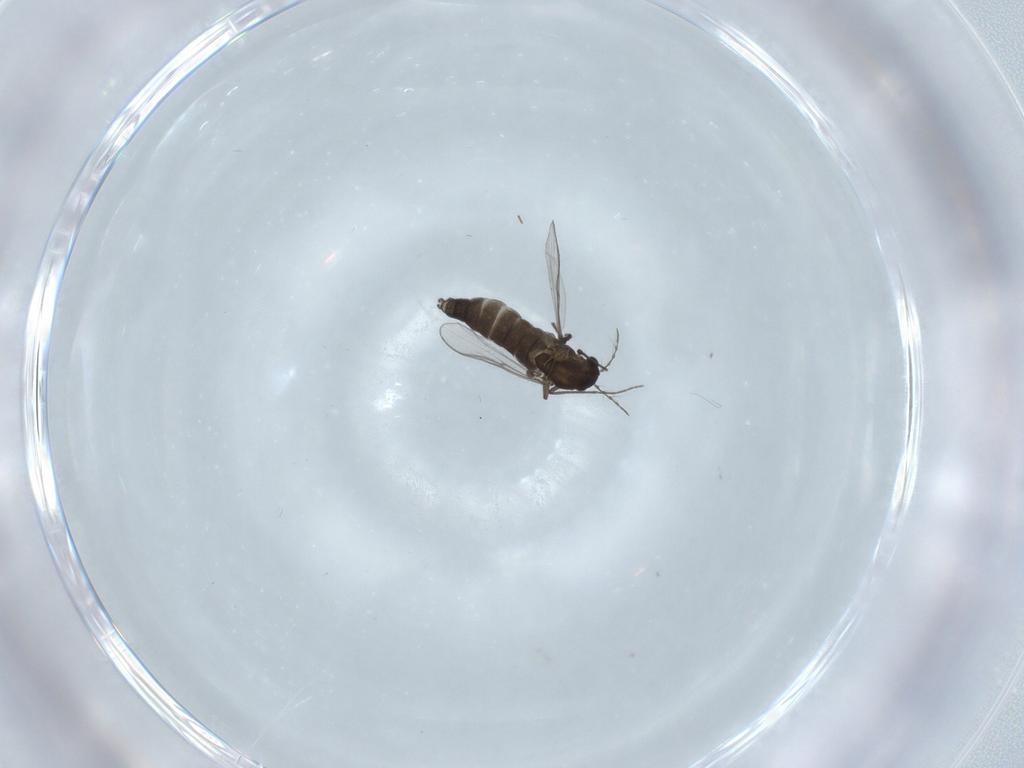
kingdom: Animalia
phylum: Arthropoda
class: Insecta
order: Diptera
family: Chironomidae
